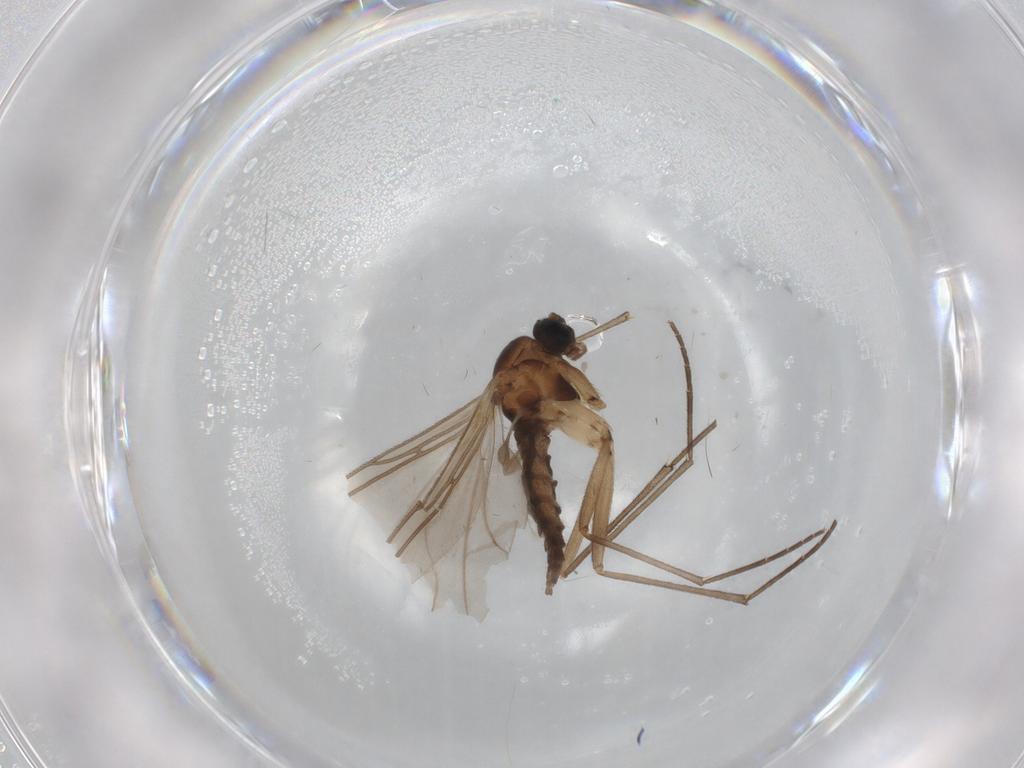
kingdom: Animalia
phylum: Arthropoda
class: Insecta
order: Diptera
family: Sciaridae
